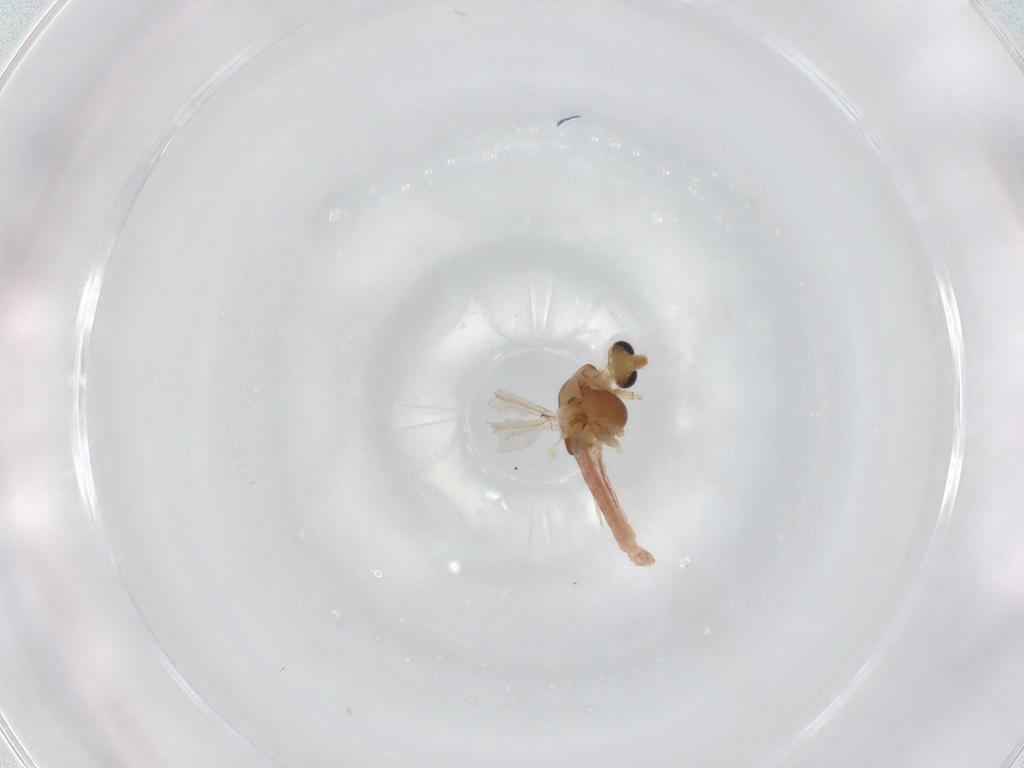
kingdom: Animalia
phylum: Arthropoda
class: Insecta
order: Diptera
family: Chironomidae
